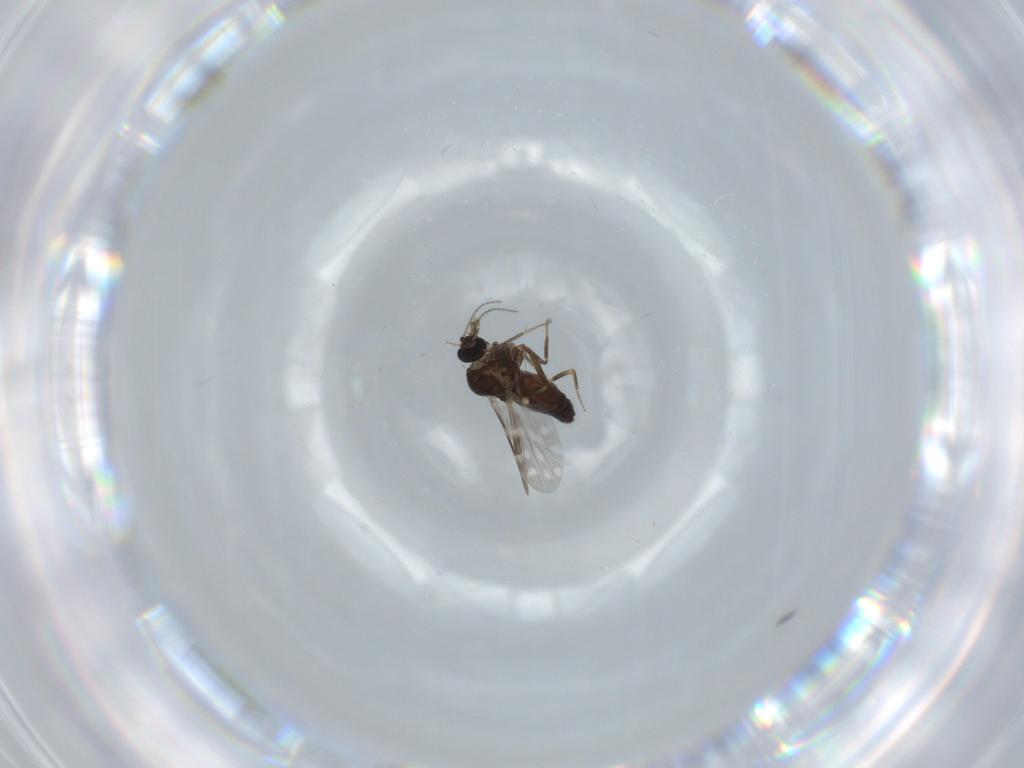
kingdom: Animalia
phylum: Arthropoda
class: Insecta
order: Diptera
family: Ceratopogonidae
